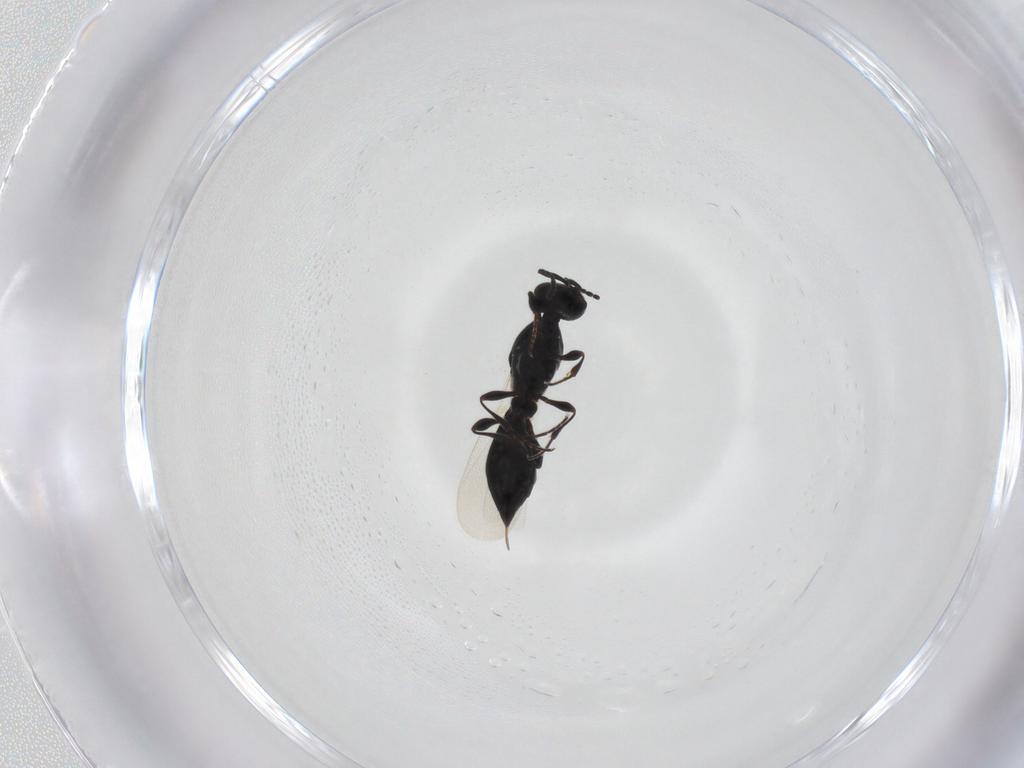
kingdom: Animalia
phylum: Arthropoda
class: Insecta
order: Hymenoptera
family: Platygastridae
